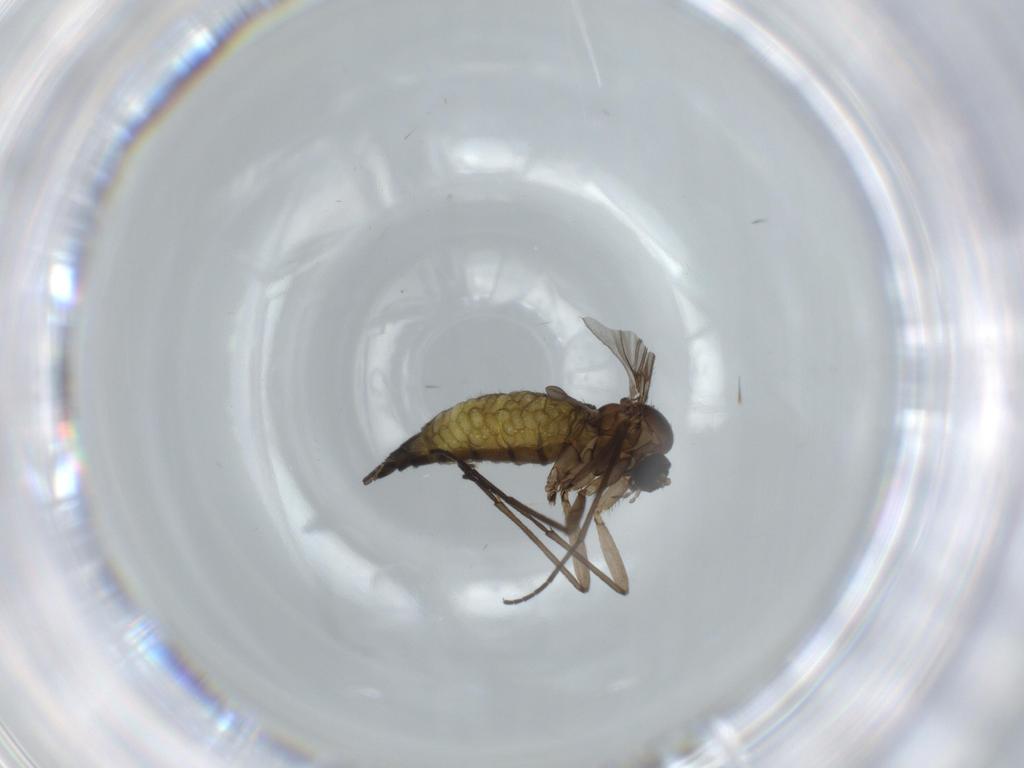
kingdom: Animalia
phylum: Arthropoda
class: Insecta
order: Diptera
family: Sciaridae
